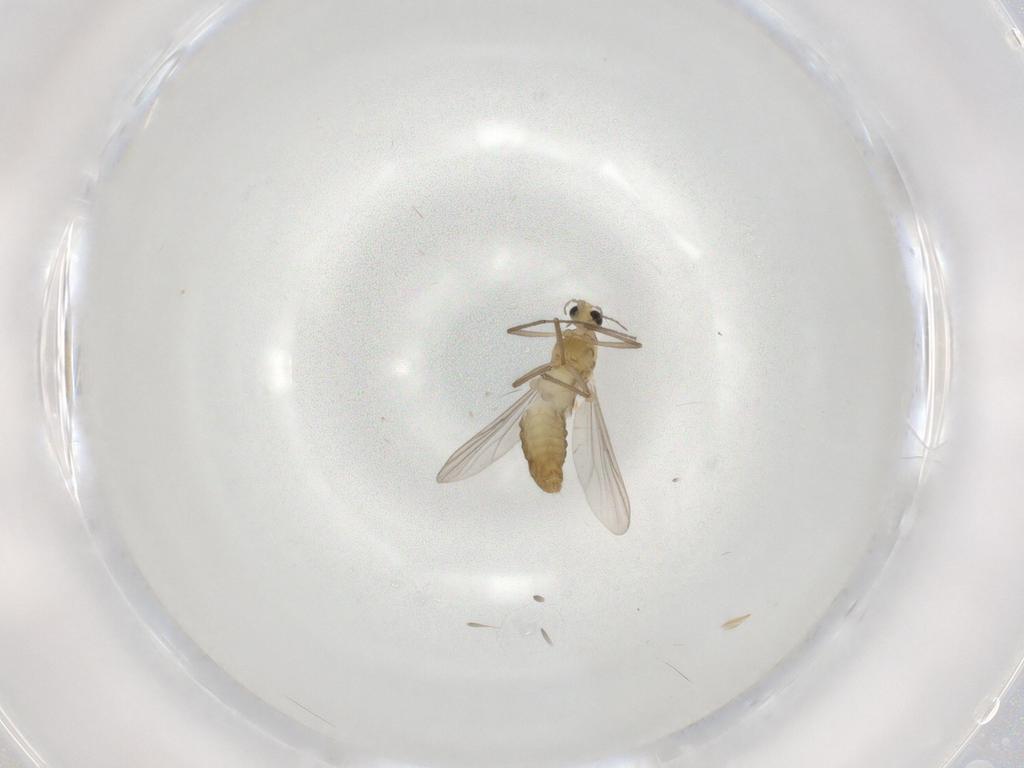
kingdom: Animalia
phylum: Arthropoda
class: Insecta
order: Diptera
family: Chironomidae
